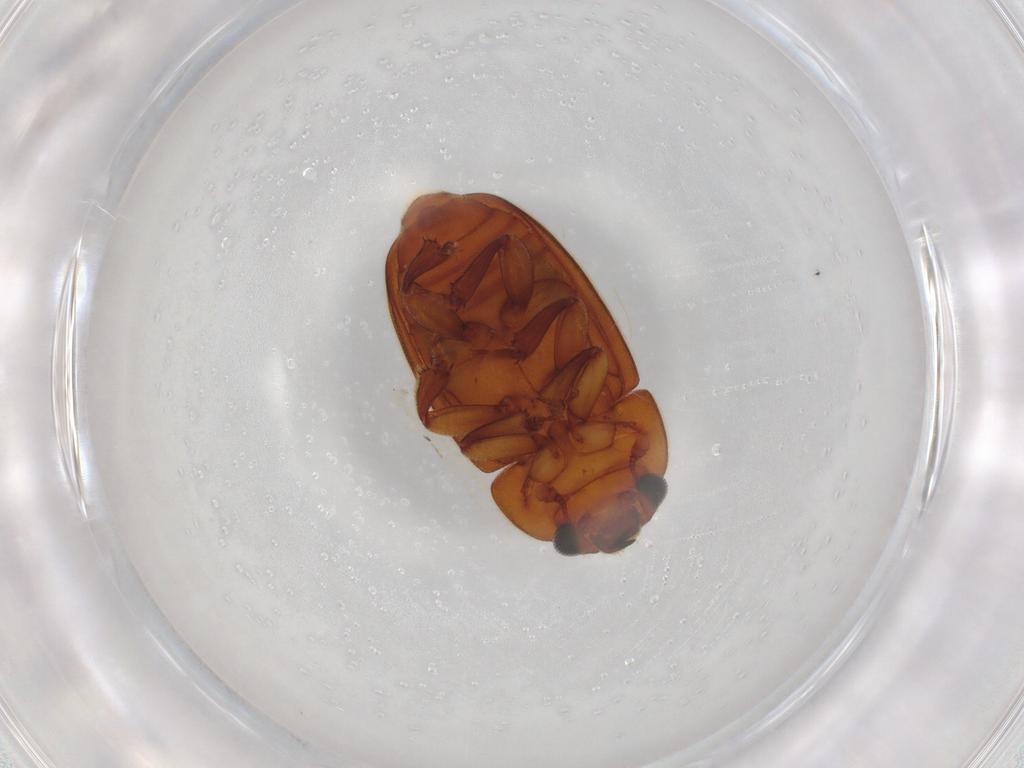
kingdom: Animalia
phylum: Arthropoda
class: Insecta
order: Coleoptera
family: Nitidulidae
